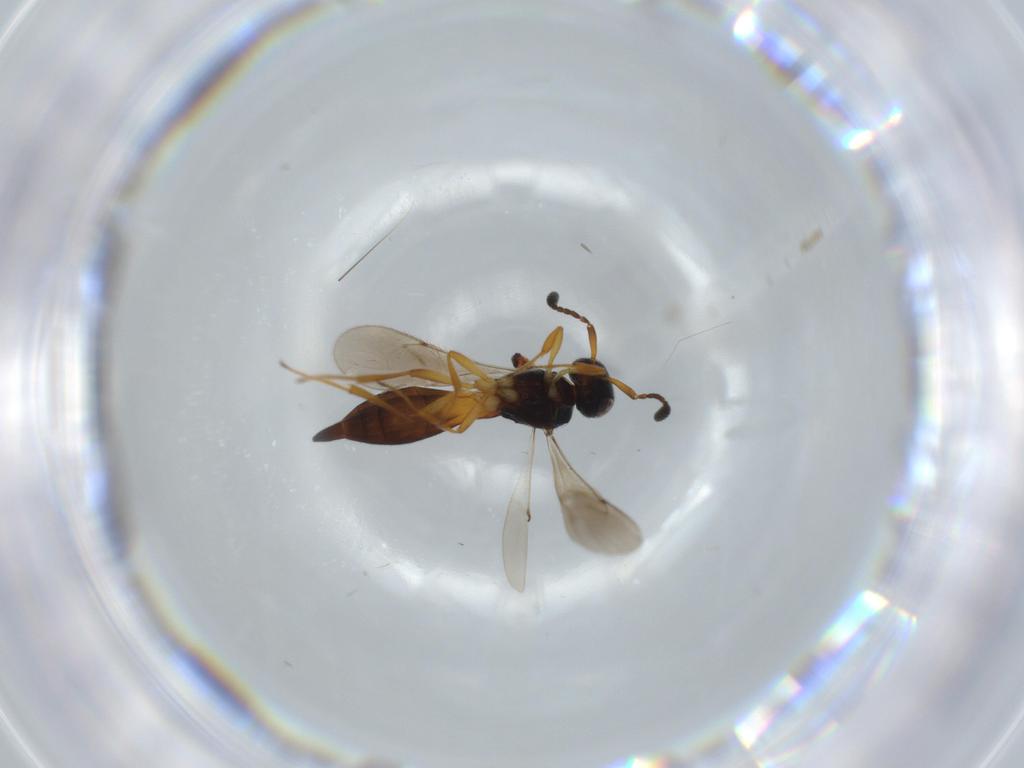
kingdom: Animalia
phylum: Arthropoda
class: Insecta
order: Hymenoptera
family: Scelionidae
